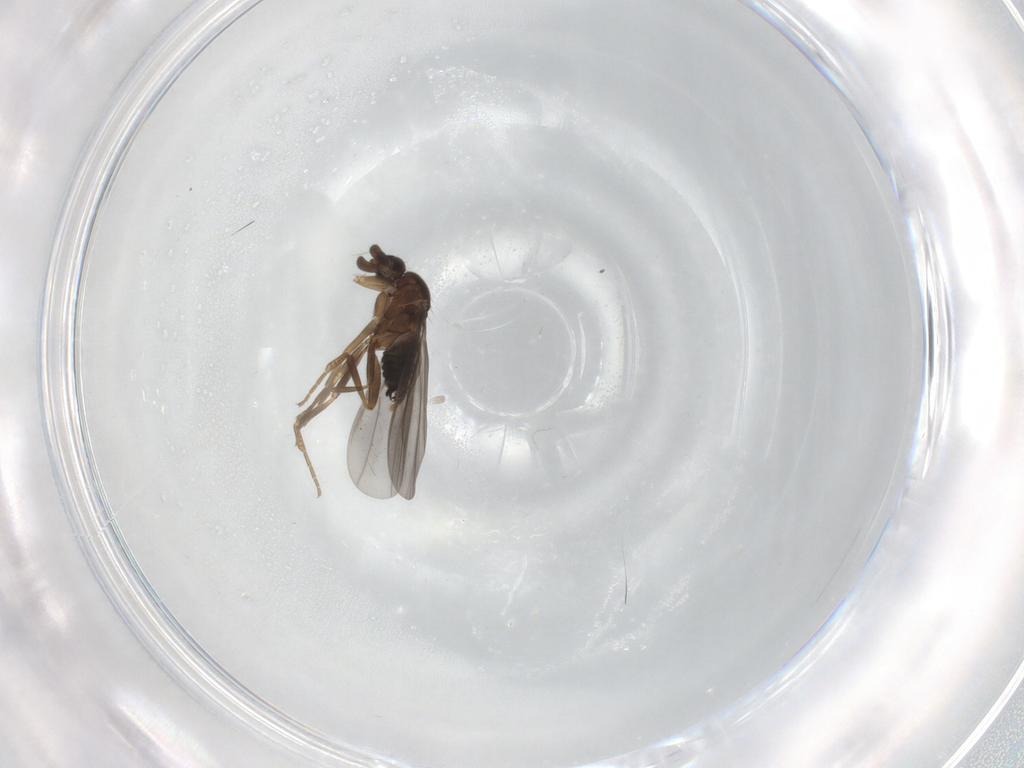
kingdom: Animalia
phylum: Arthropoda
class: Insecta
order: Diptera
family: Phoridae
